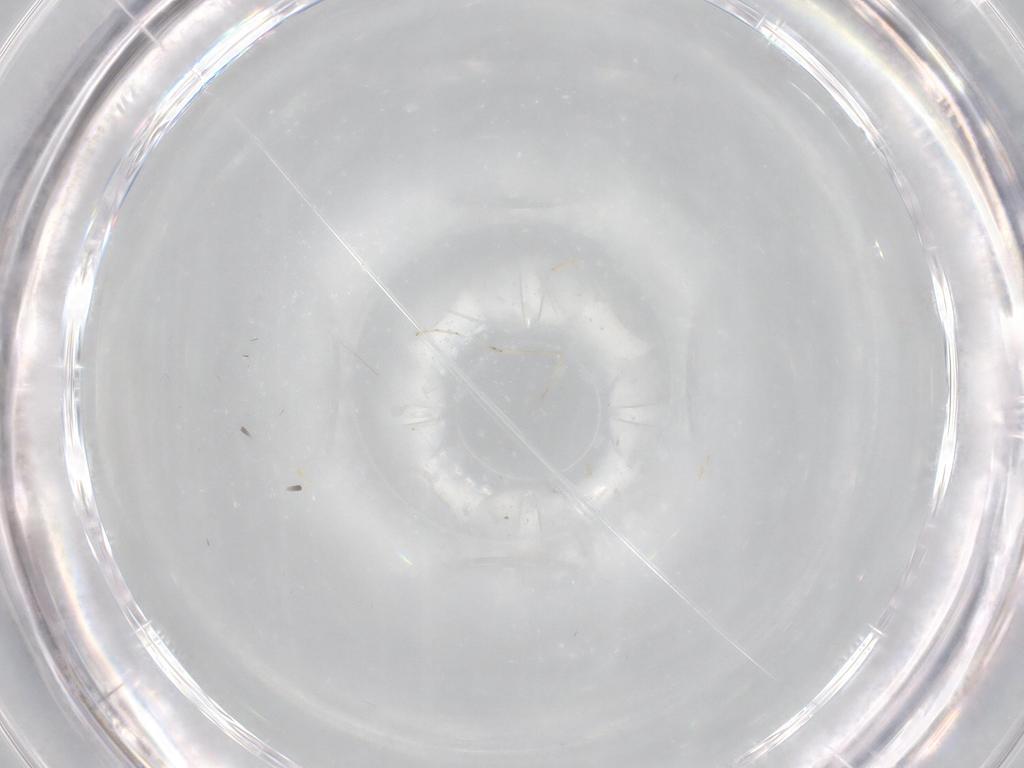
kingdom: Animalia
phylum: Arthropoda
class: Insecta
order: Diptera
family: Cecidomyiidae
